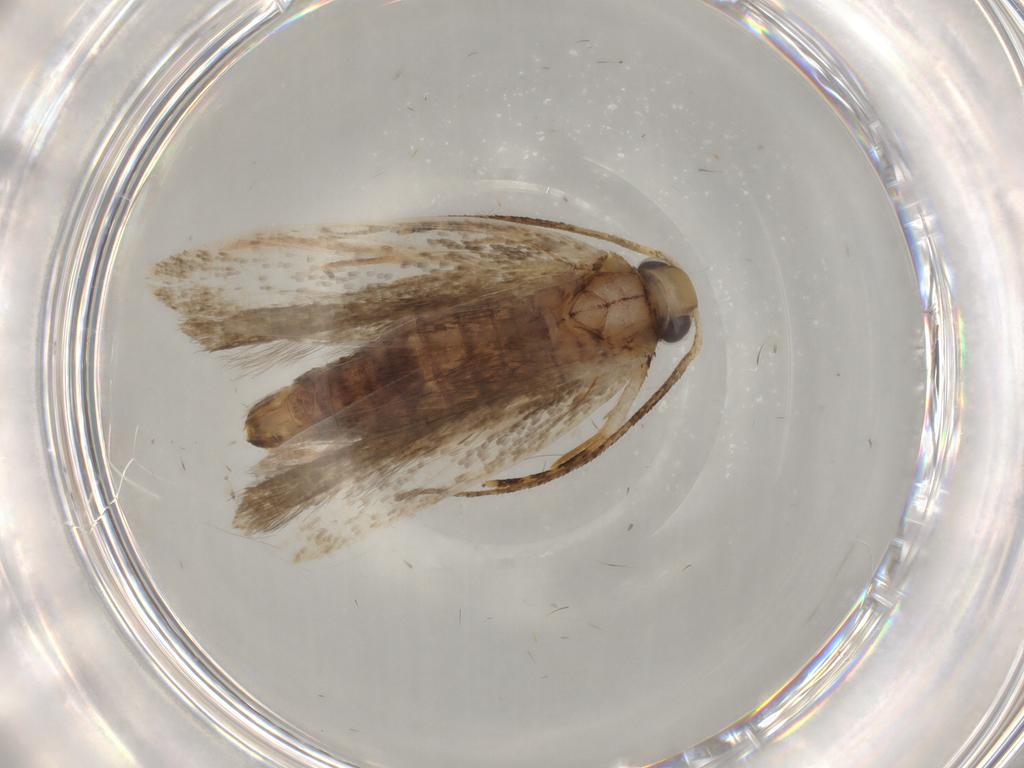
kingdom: Animalia
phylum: Arthropoda
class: Insecta
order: Lepidoptera
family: Gelechiidae
